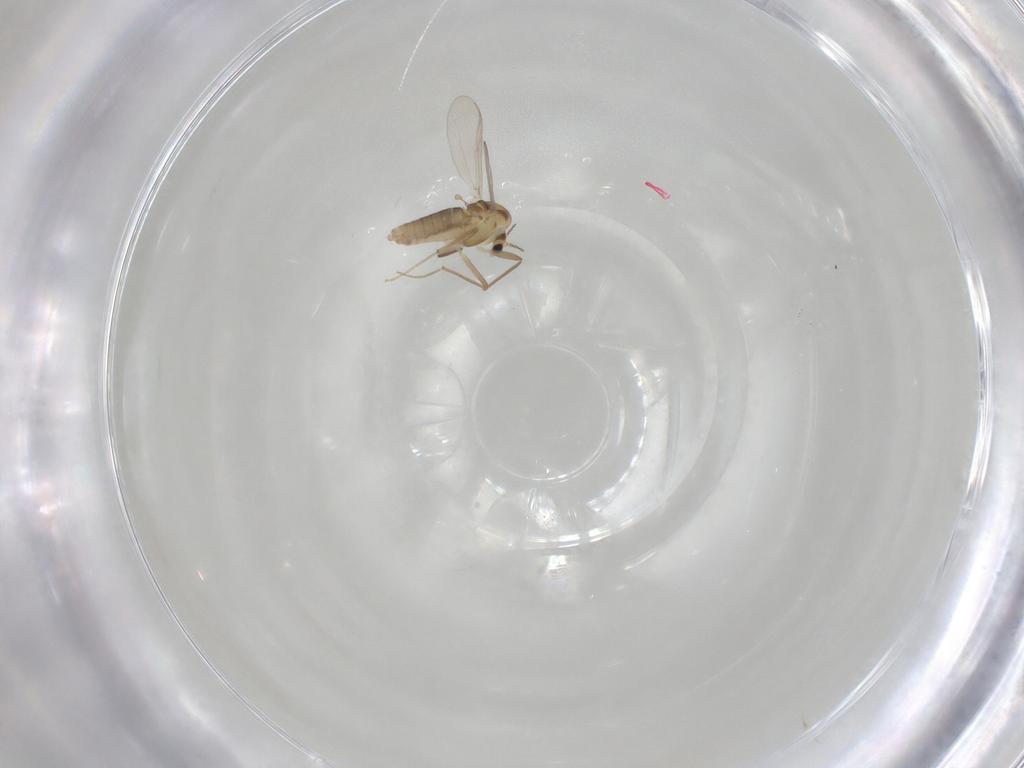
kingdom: Animalia
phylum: Arthropoda
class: Insecta
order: Diptera
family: Chironomidae
